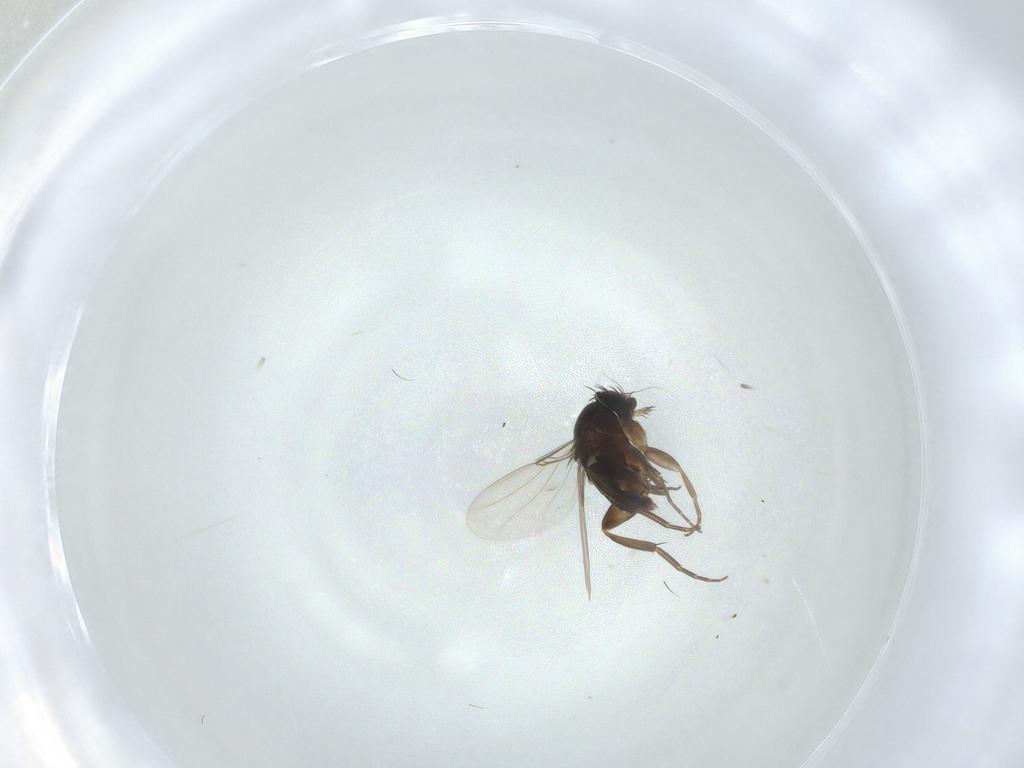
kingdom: Animalia
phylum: Arthropoda
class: Insecta
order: Diptera
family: Phoridae
